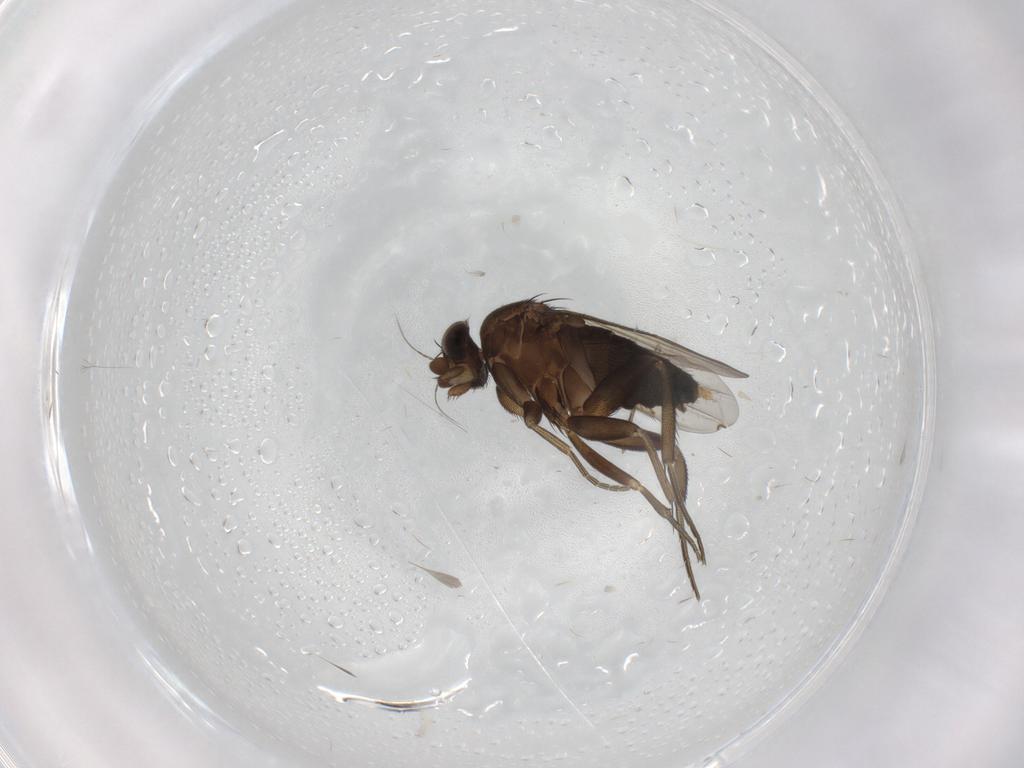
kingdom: Animalia
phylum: Arthropoda
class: Insecta
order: Diptera
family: Phoridae
